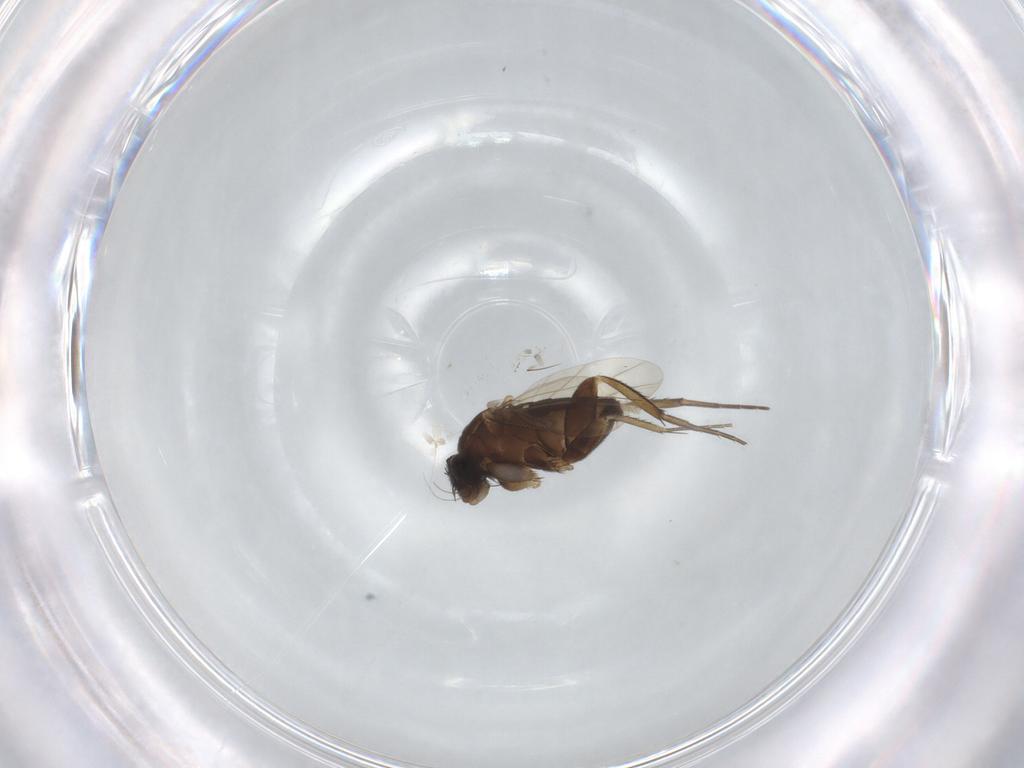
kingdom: Animalia
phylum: Arthropoda
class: Insecta
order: Diptera
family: Phoridae
